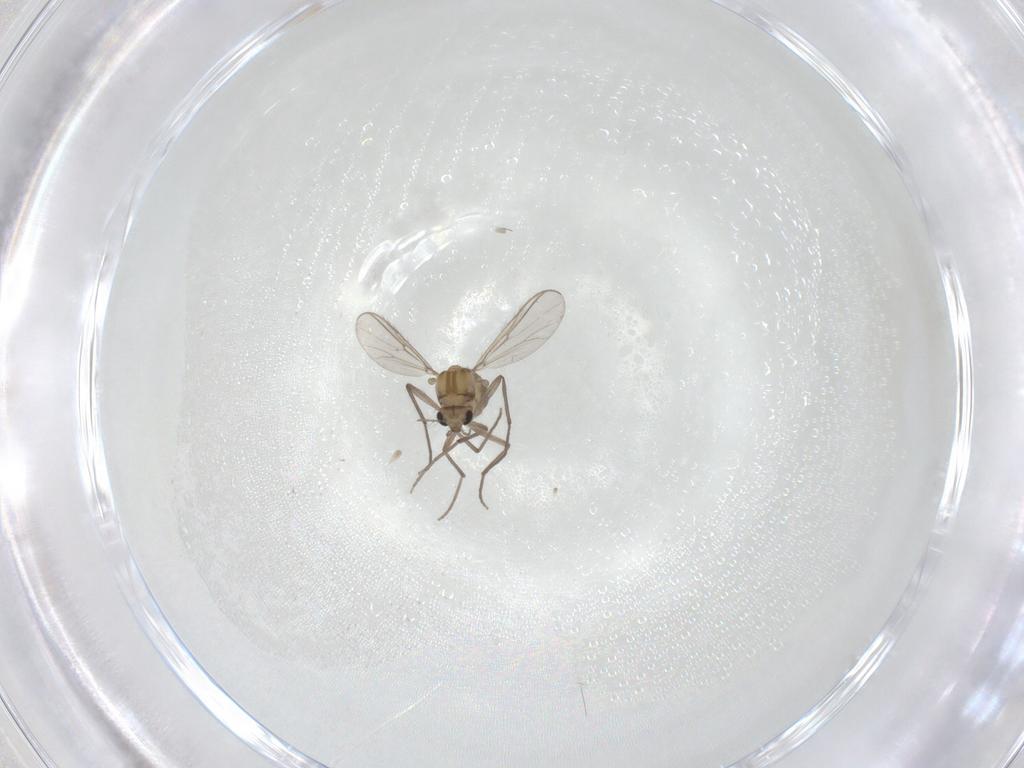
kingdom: Animalia
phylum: Arthropoda
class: Insecta
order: Diptera
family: Chironomidae
